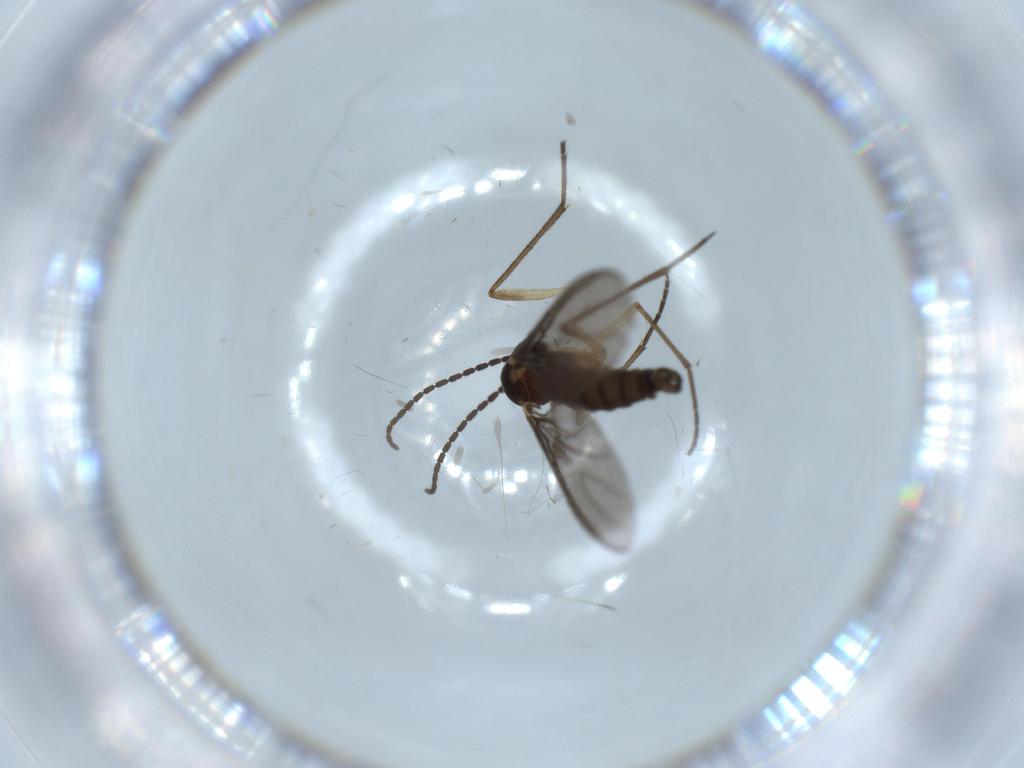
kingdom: Animalia
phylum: Arthropoda
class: Insecta
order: Diptera
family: Sciaridae
